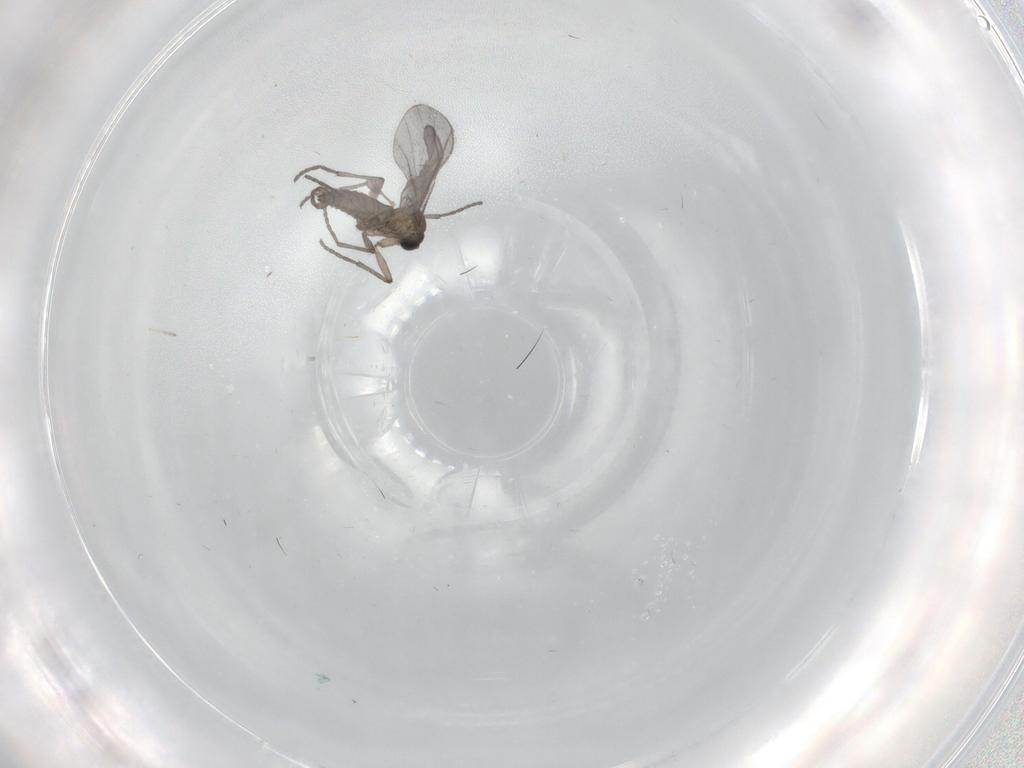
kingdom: Animalia
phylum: Arthropoda
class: Insecta
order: Diptera
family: Sciaridae
